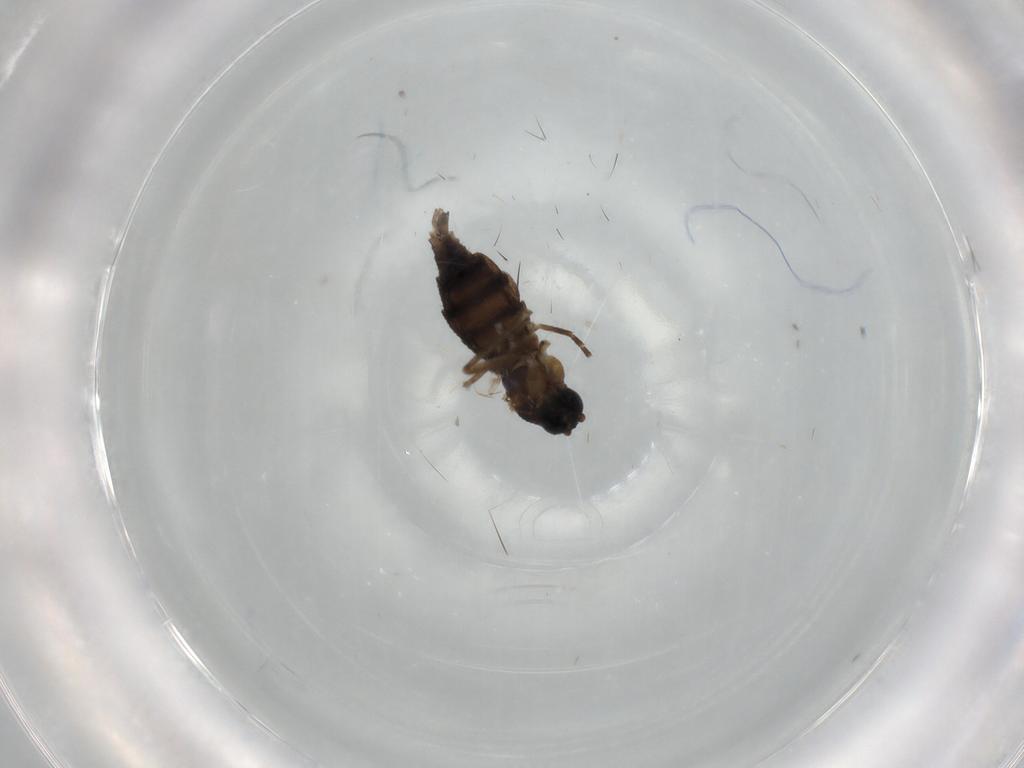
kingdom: Animalia
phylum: Arthropoda
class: Insecta
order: Diptera
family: Sciaridae
